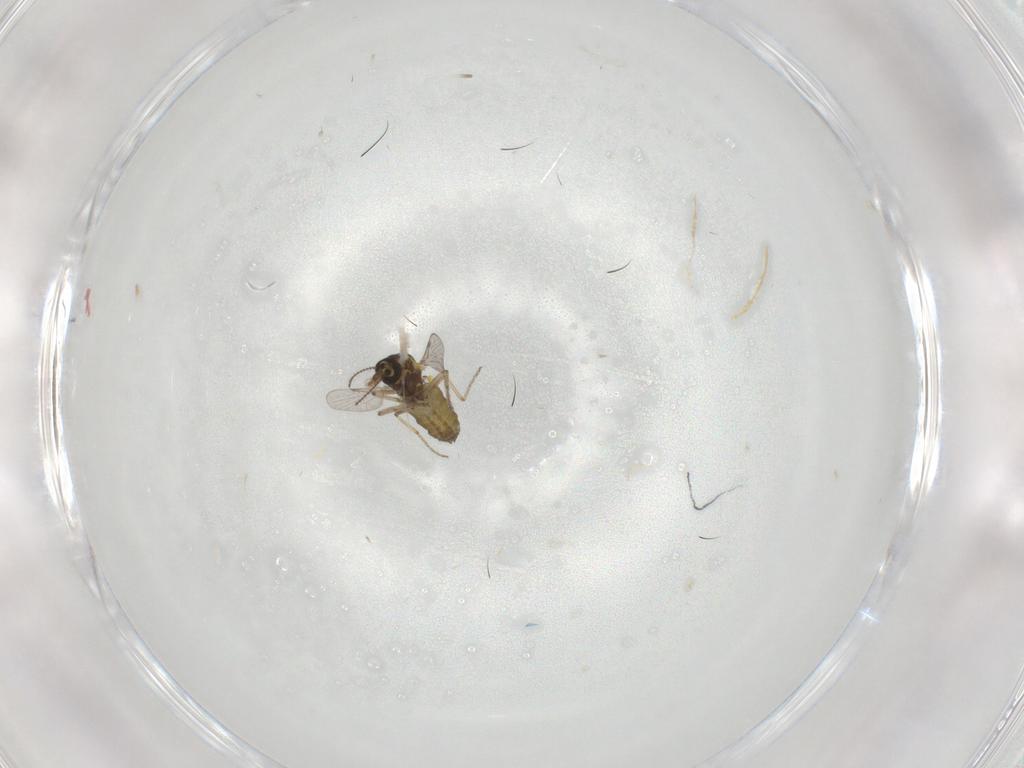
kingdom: Animalia
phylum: Arthropoda
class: Insecta
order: Diptera
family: Ceratopogonidae
